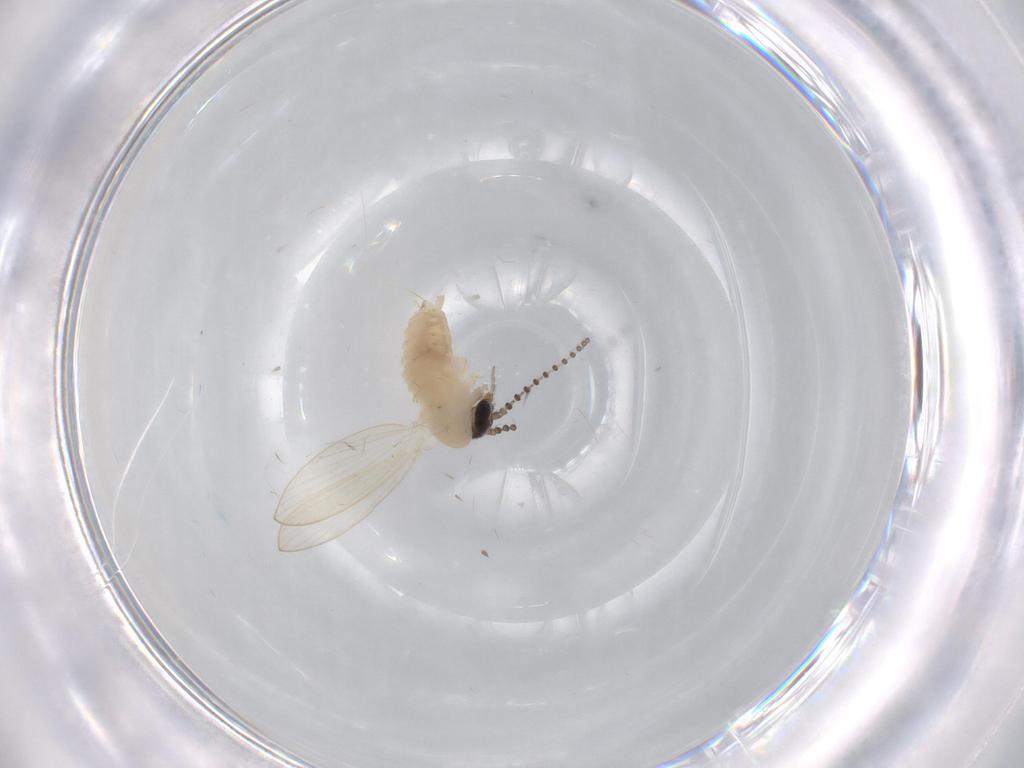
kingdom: Animalia
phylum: Arthropoda
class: Insecta
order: Diptera
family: Psychodidae
